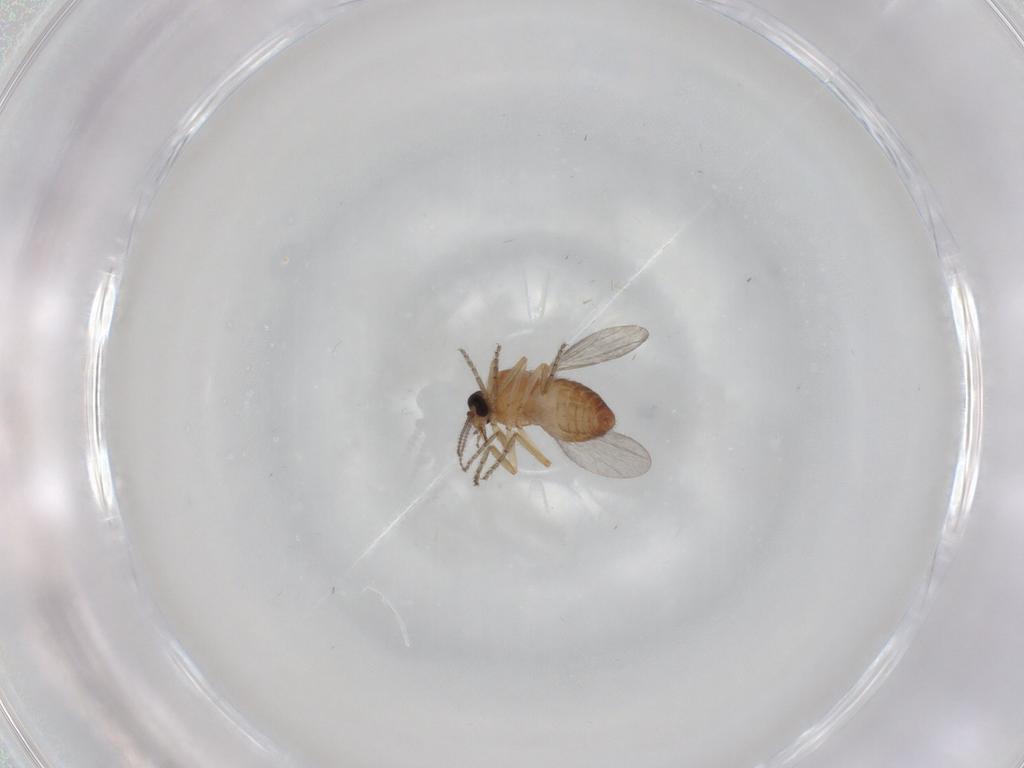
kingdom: Animalia
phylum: Arthropoda
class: Insecta
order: Diptera
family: Ceratopogonidae
